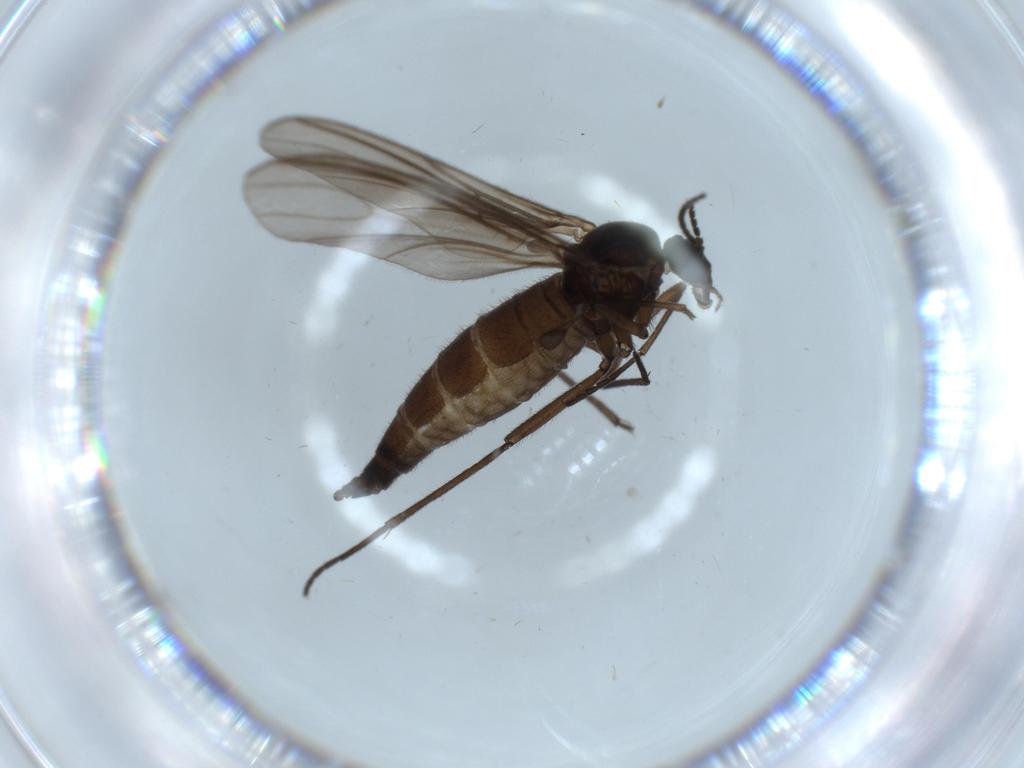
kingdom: Animalia
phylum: Arthropoda
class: Insecta
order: Diptera
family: Sciaridae
